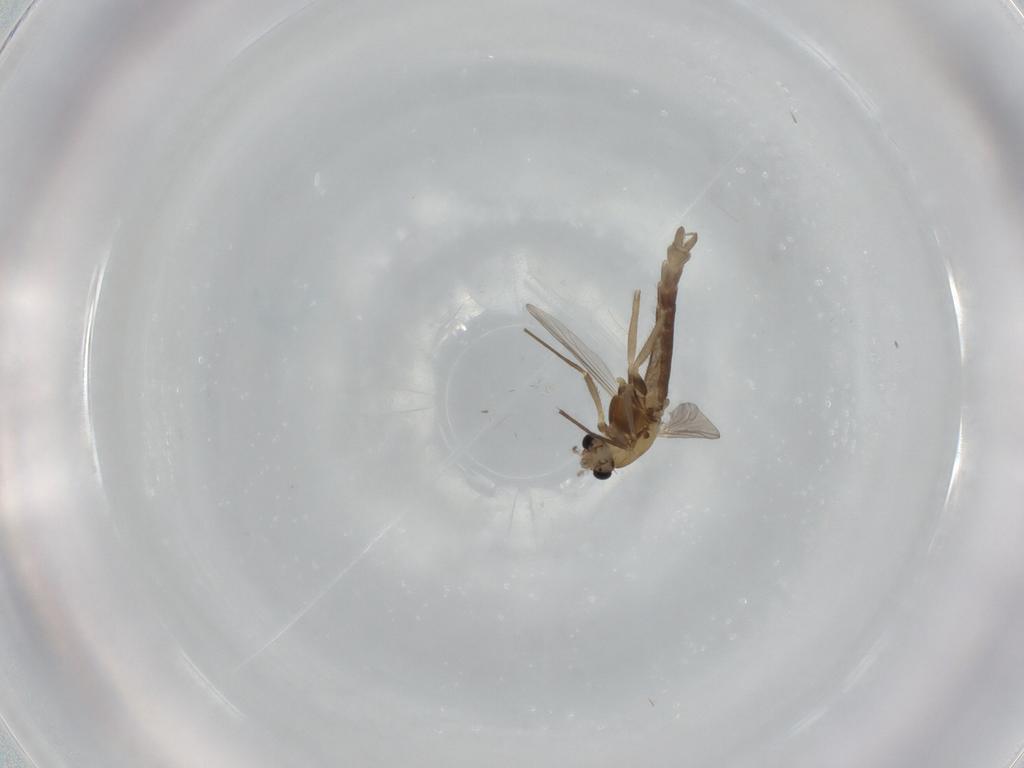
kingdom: Animalia
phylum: Arthropoda
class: Insecta
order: Diptera
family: Chironomidae
